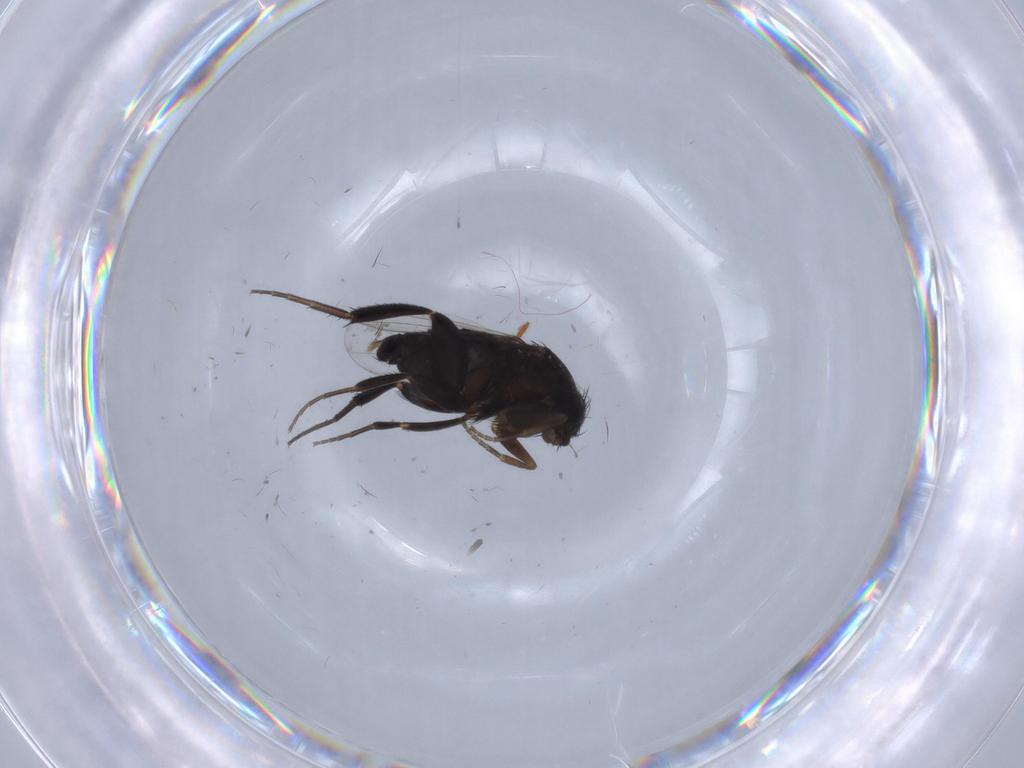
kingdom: Animalia
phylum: Arthropoda
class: Insecta
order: Diptera
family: Phoridae
